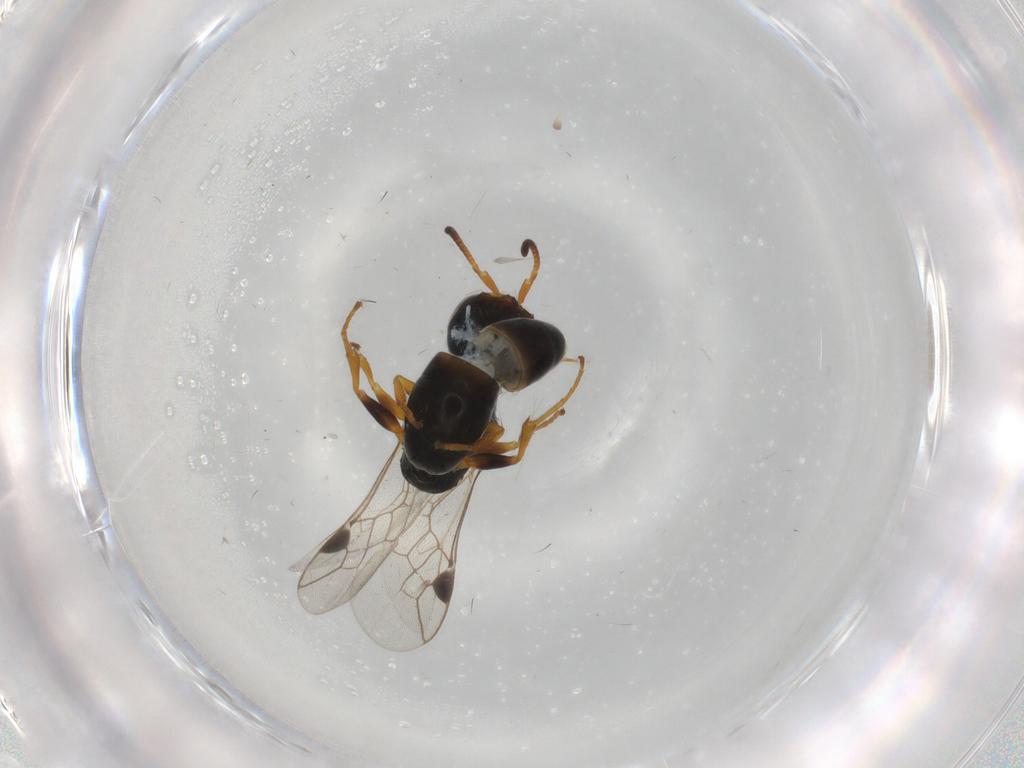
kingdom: Animalia
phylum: Arthropoda
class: Insecta
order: Hymenoptera
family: Pemphredonidae
